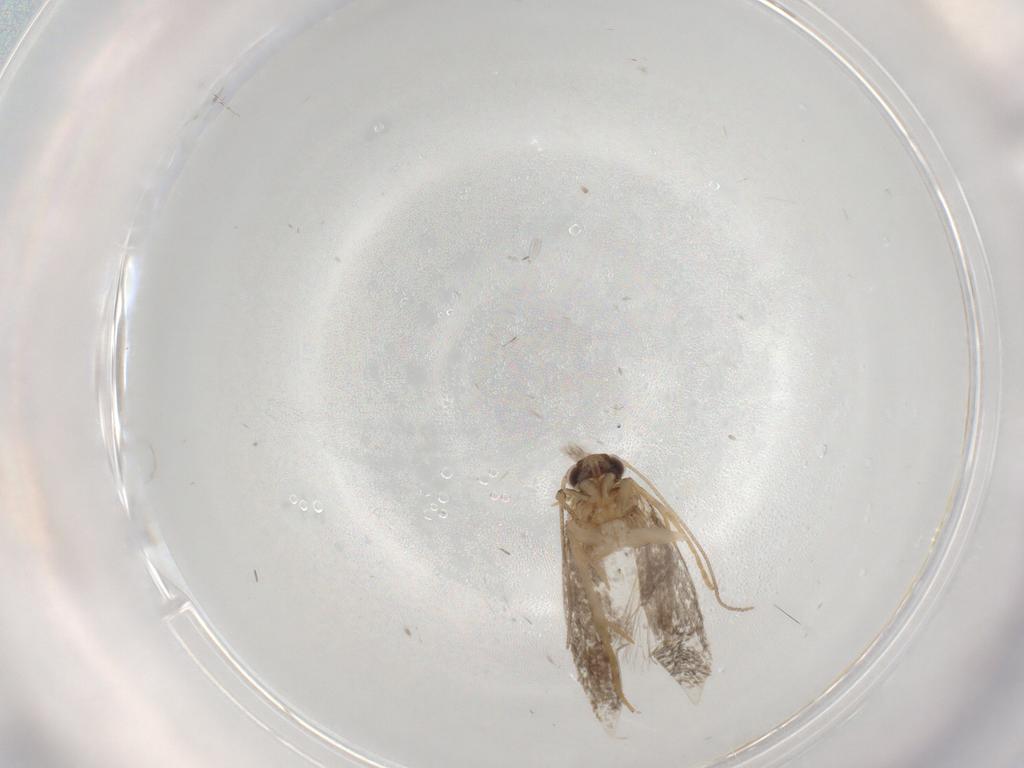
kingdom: Animalia
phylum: Arthropoda
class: Insecta
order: Lepidoptera
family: Tineidae
